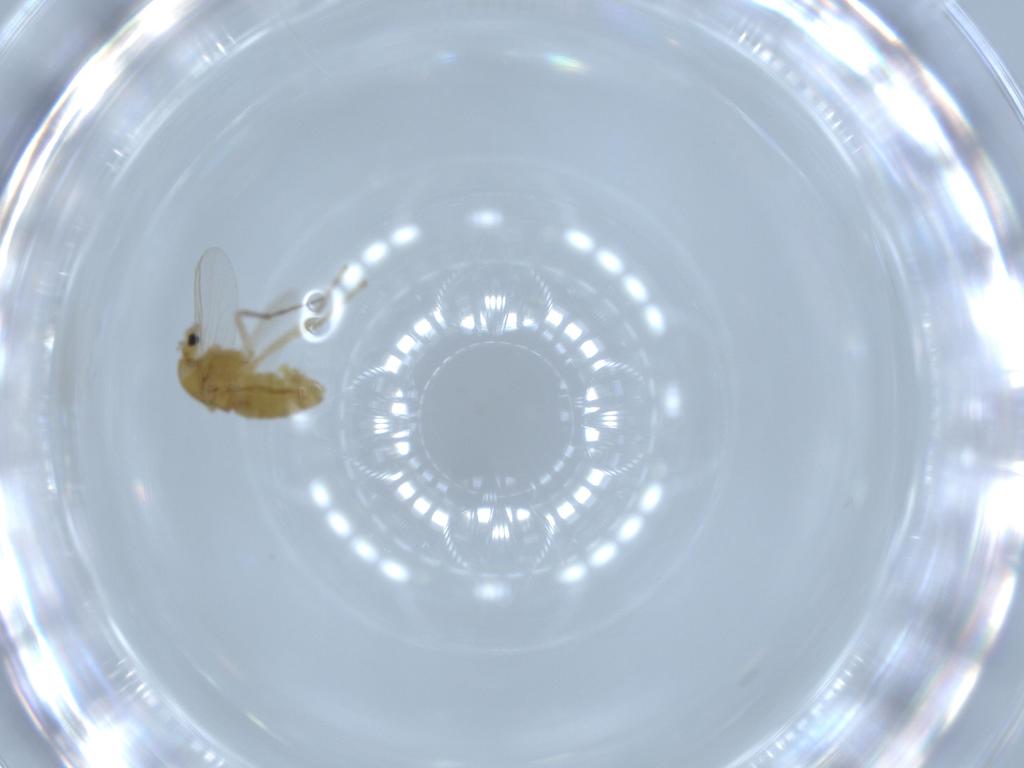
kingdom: Animalia
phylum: Arthropoda
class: Insecta
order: Diptera
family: Chironomidae
